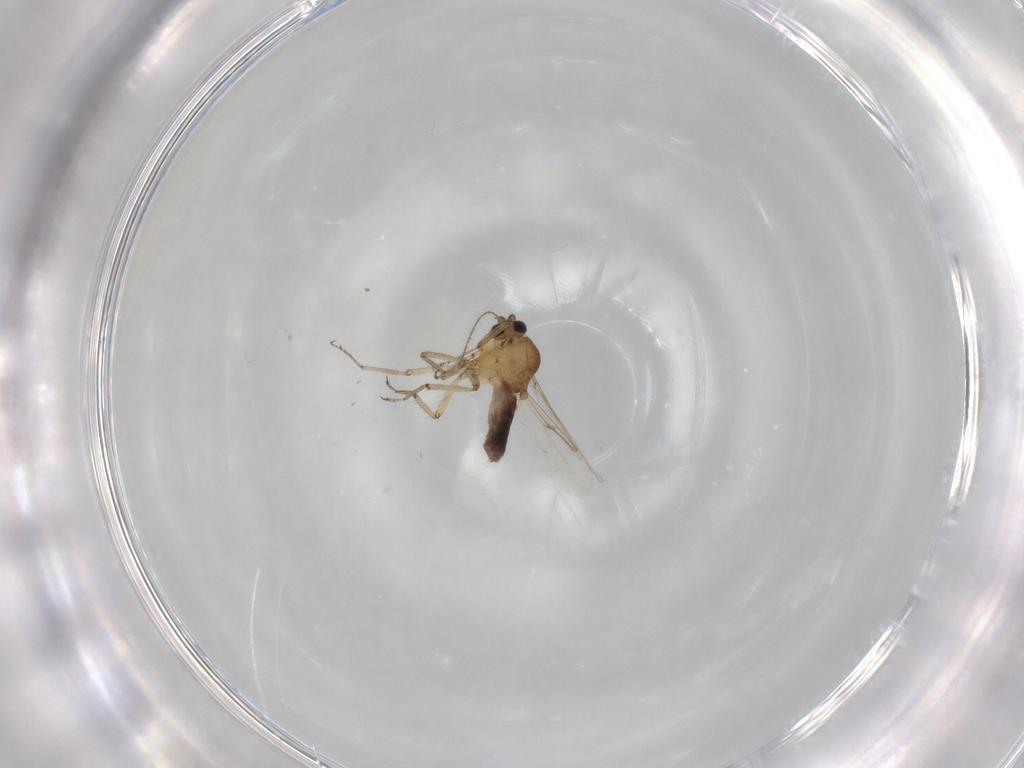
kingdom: Animalia
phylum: Arthropoda
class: Insecta
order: Diptera
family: Ceratopogonidae
